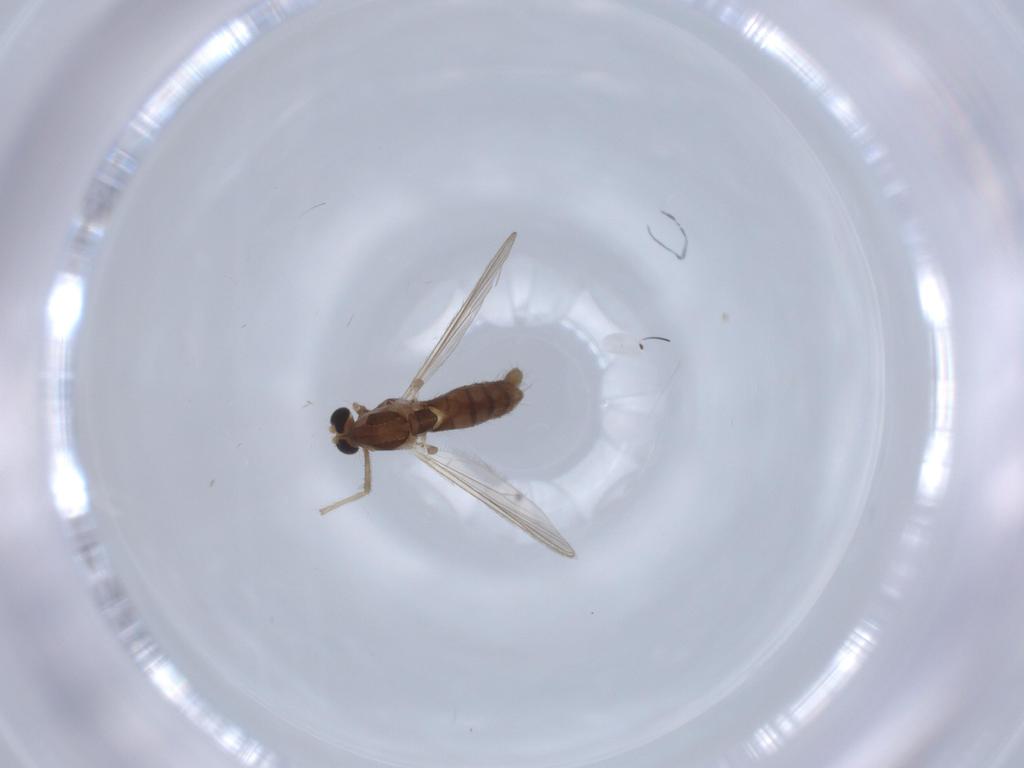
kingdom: Animalia
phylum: Arthropoda
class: Insecta
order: Diptera
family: Chironomidae
